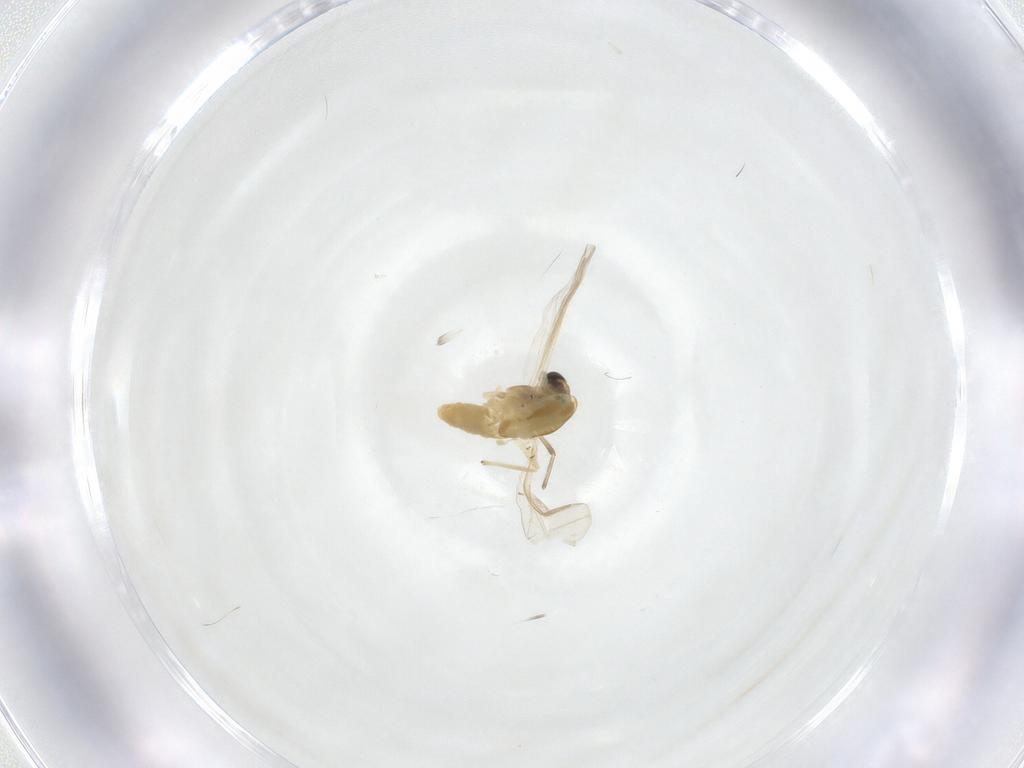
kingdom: Animalia
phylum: Arthropoda
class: Insecta
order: Diptera
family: Chironomidae
